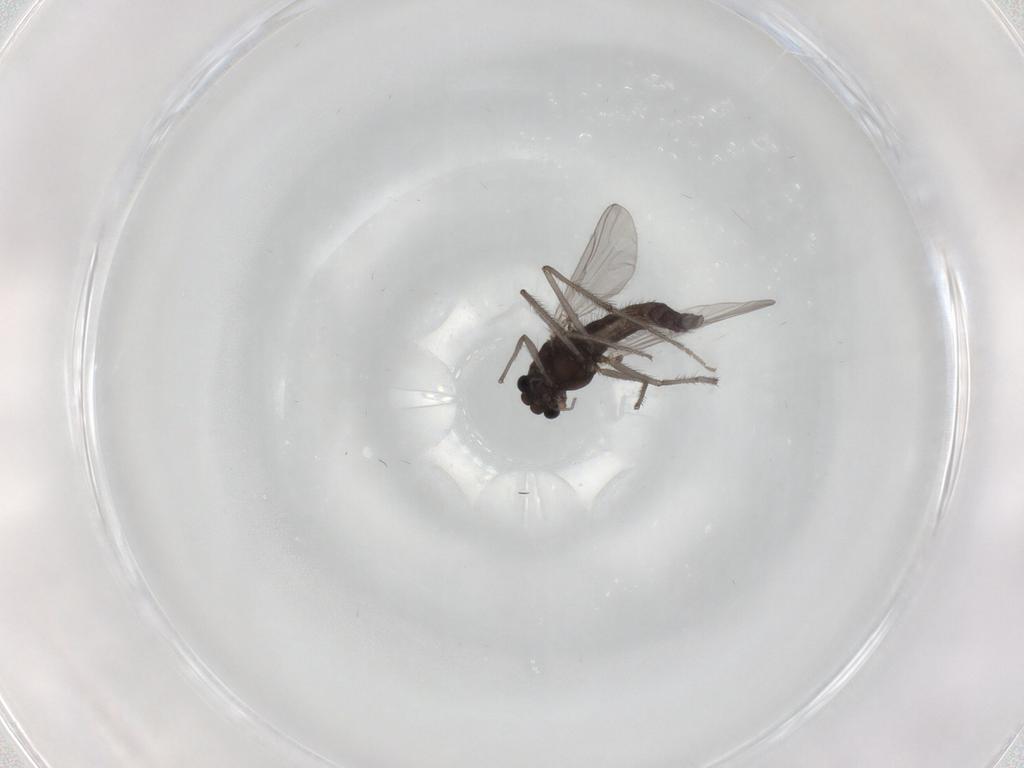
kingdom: Animalia
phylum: Arthropoda
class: Insecta
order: Diptera
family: Chironomidae
